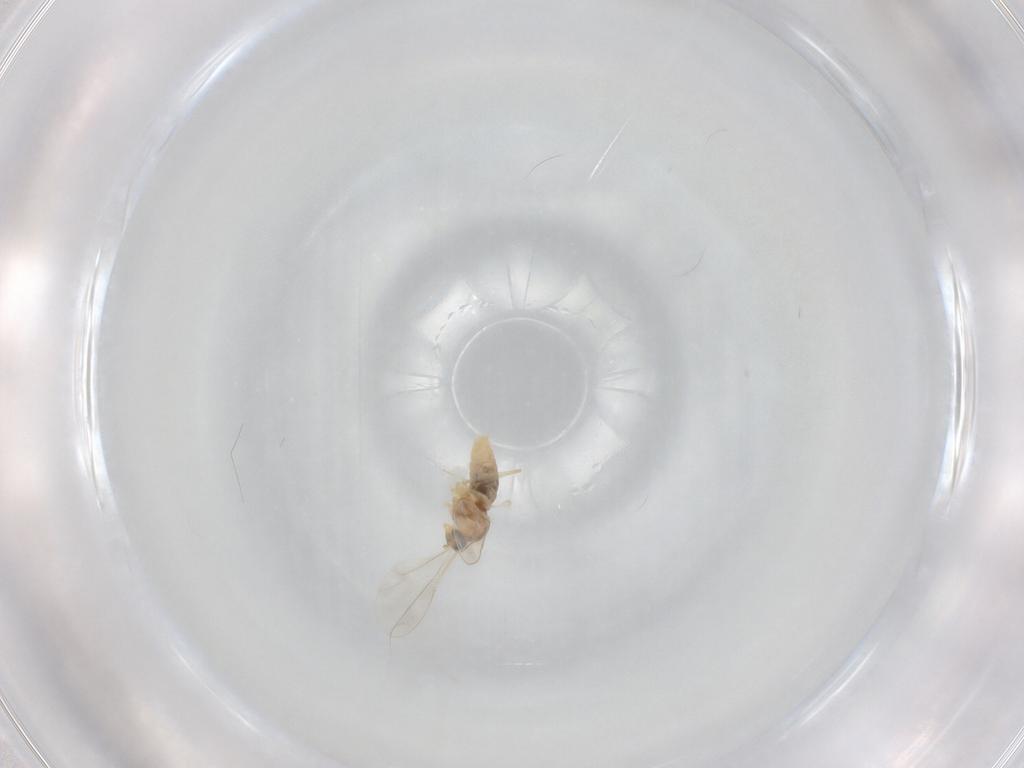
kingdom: Animalia
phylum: Arthropoda
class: Insecta
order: Diptera
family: Cecidomyiidae
